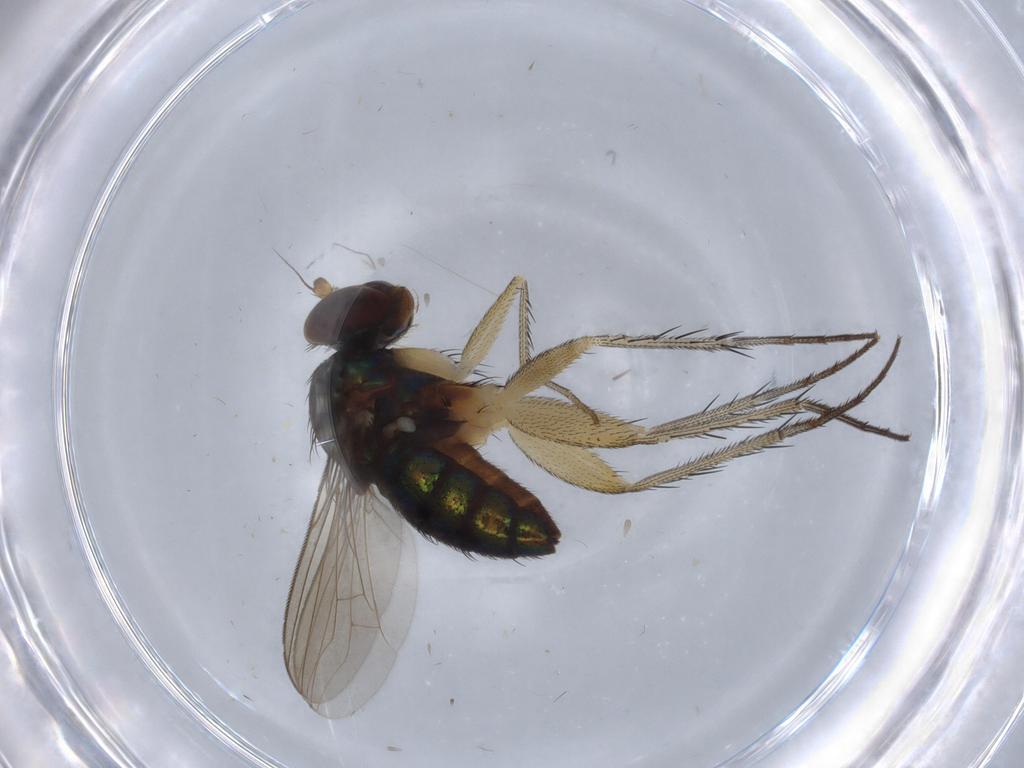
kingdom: Animalia
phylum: Arthropoda
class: Insecta
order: Diptera
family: Dolichopodidae
